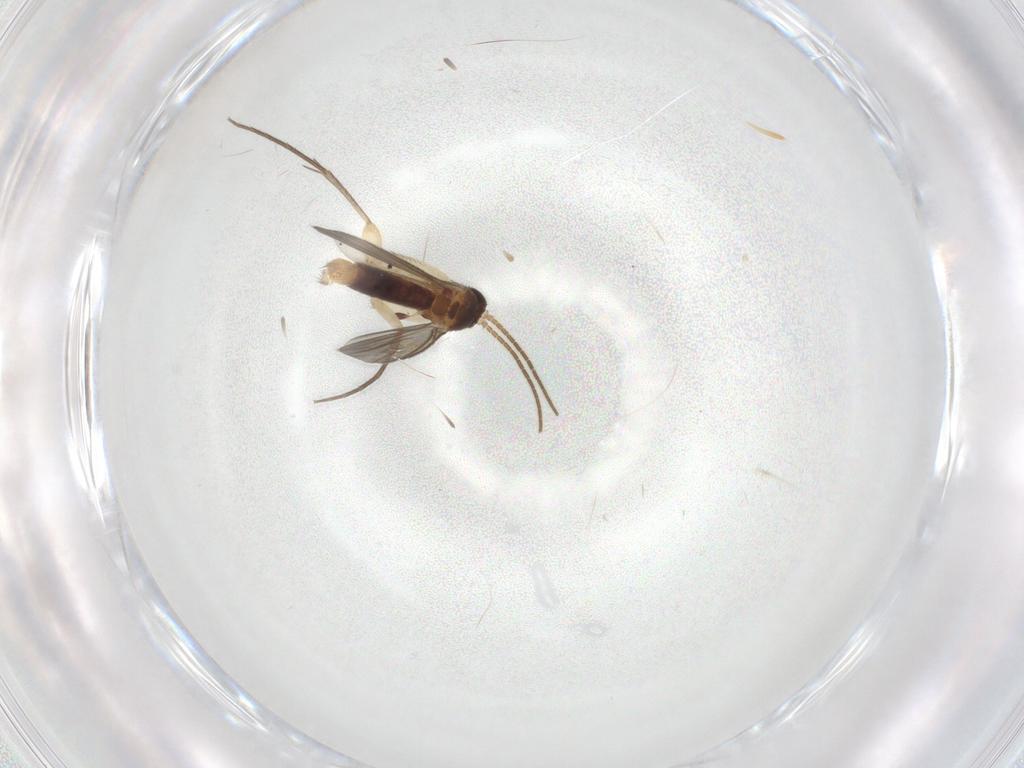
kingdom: Animalia
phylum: Arthropoda
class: Insecta
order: Diptera
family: Mycetophilidae
